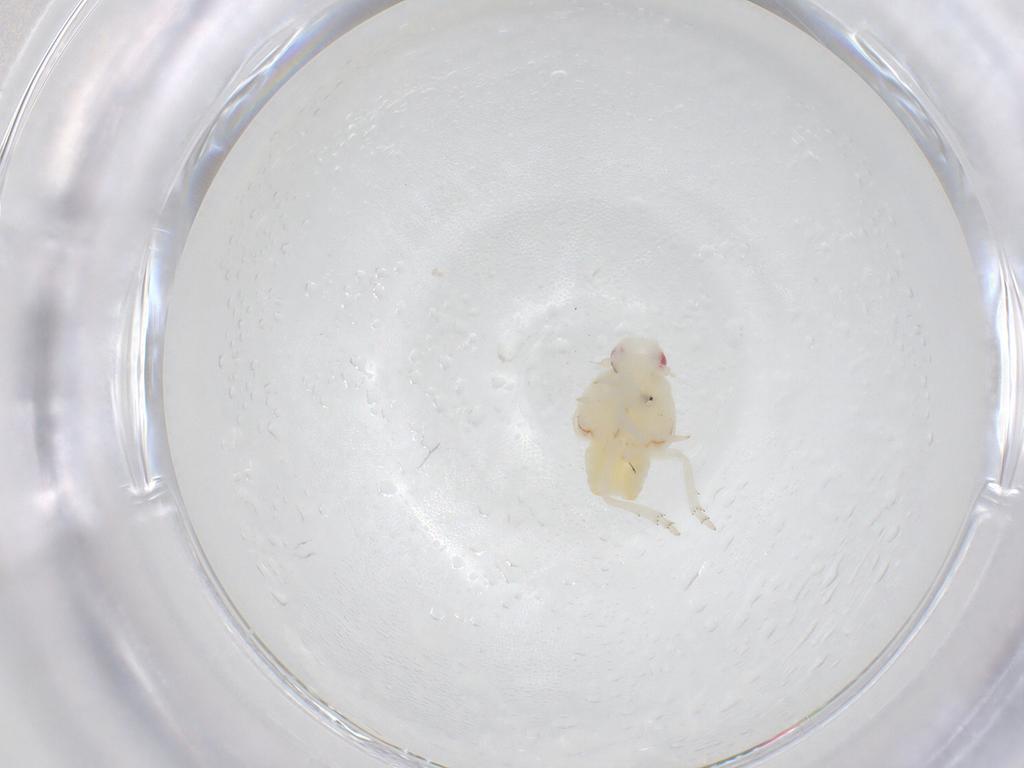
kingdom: Animalia
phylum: Arthropoda
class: Insecta
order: Hemiptera
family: Flatidae
